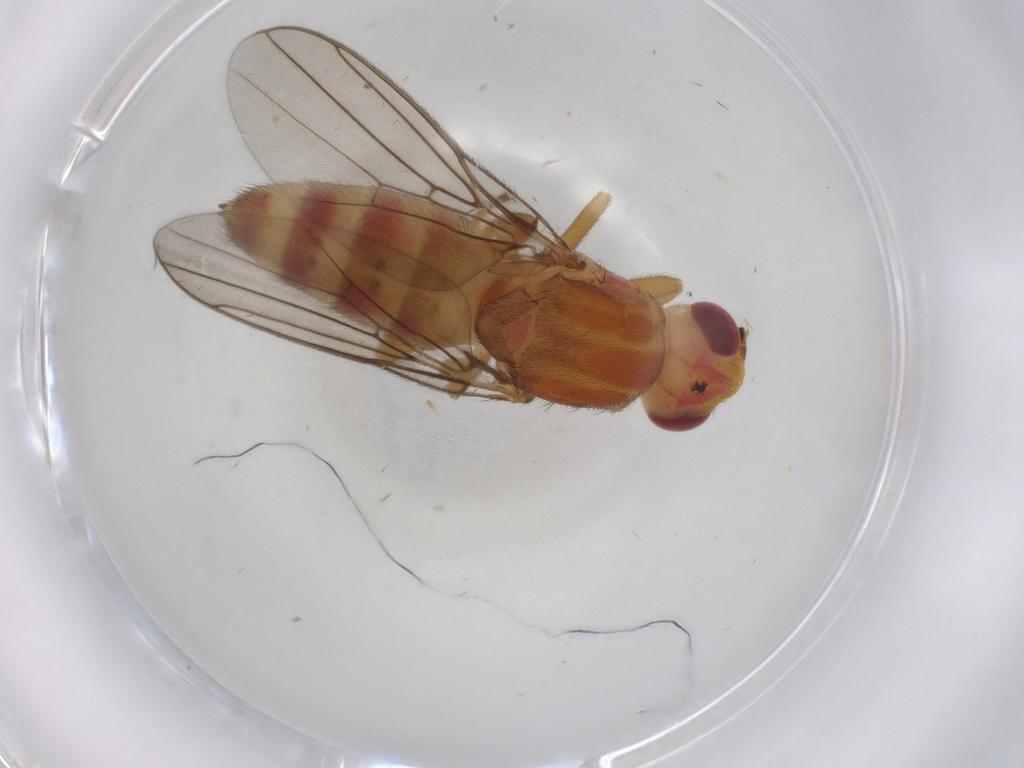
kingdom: Animalia
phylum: Arthropoda
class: Insecta
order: Diptera
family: Chloropidae
